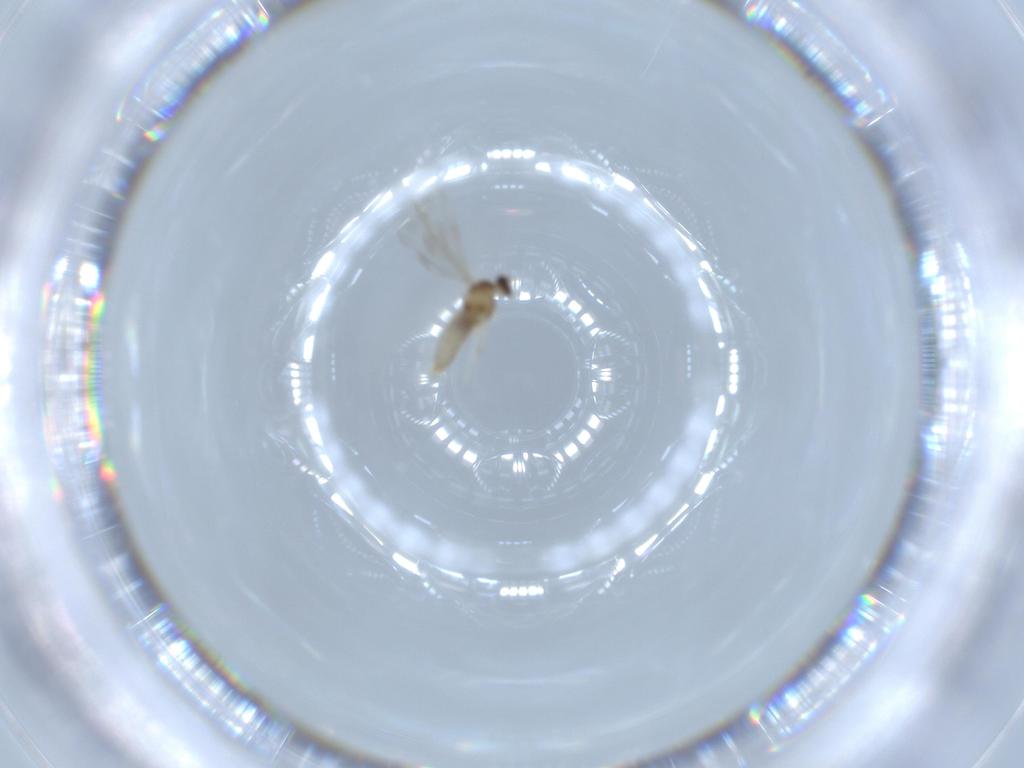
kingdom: Animalia
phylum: Arthropoda
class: Insecta
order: Diptera
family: Cecidomyiidae
